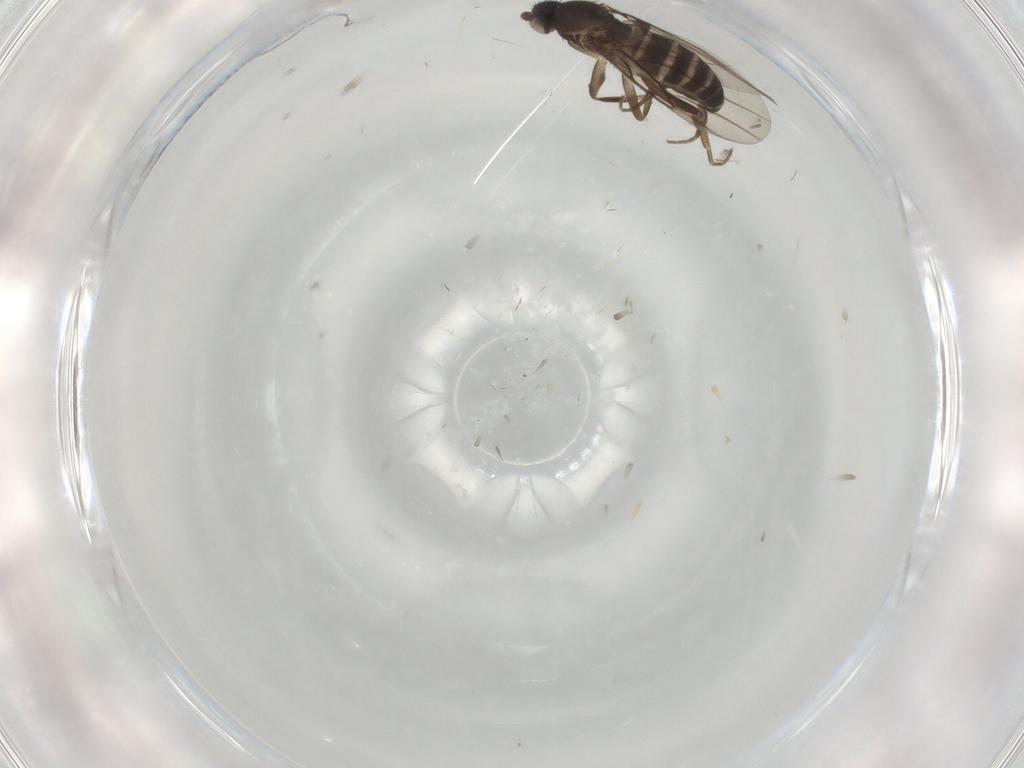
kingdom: Animalia
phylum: Arthropoda
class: Insecta
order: Diptera
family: Phoridae
